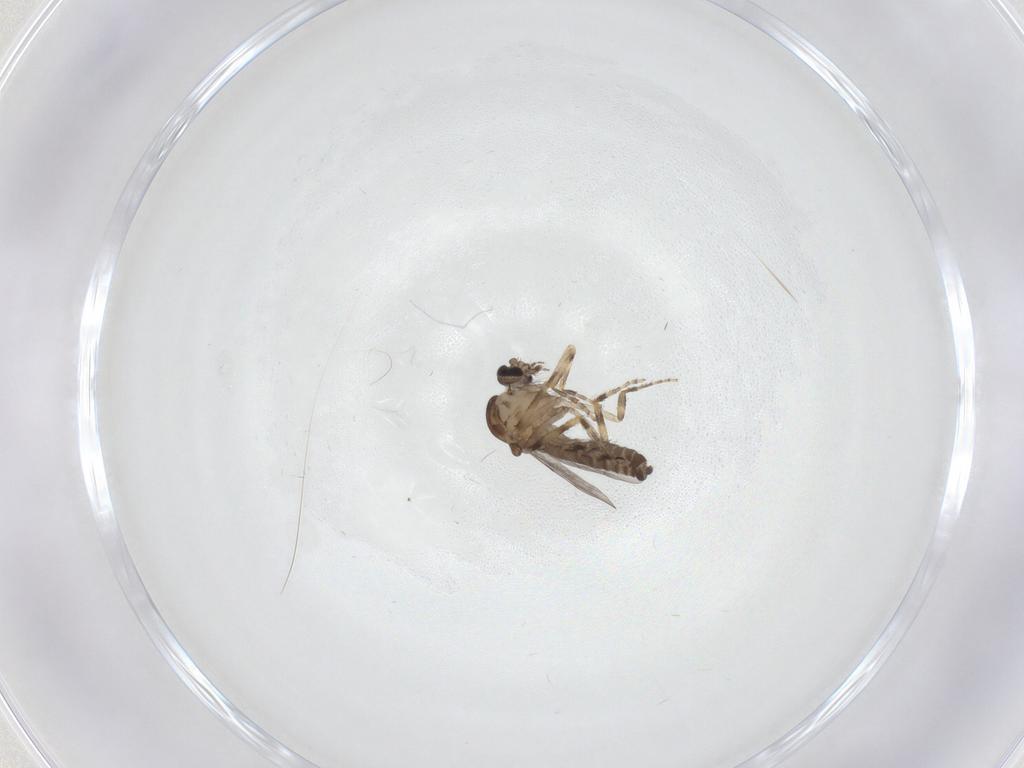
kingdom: Animalia
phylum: Arthropoda
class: Insecta
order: Diptera
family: Ceratopogonidae
